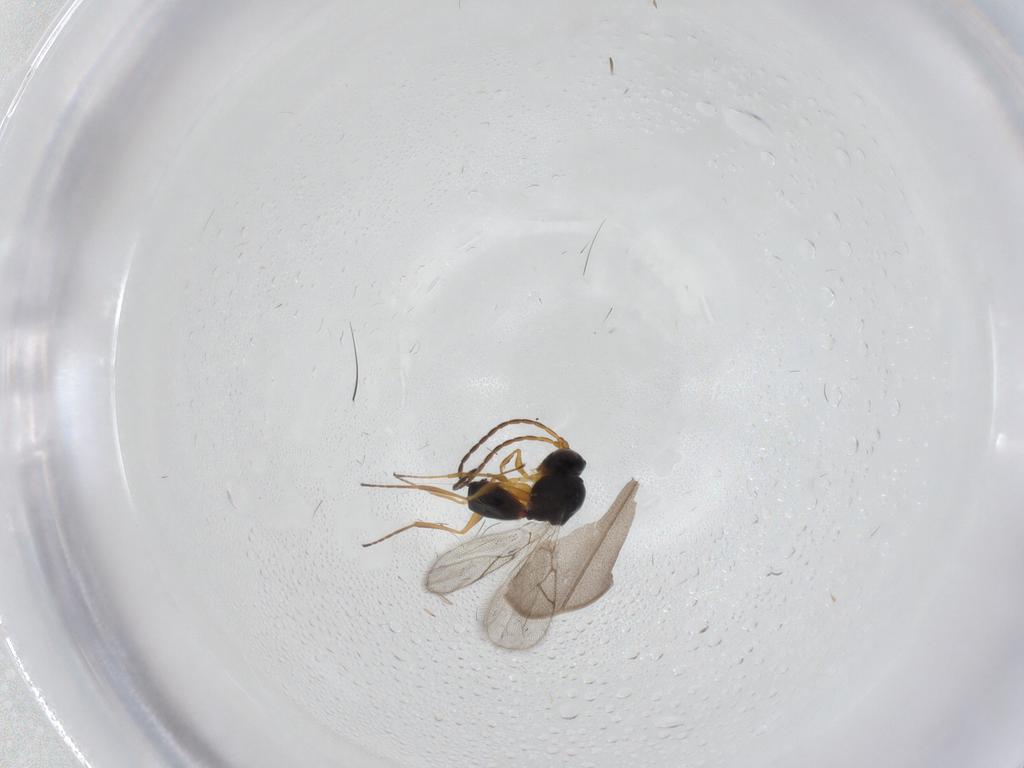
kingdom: Animalia
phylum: Arthropoda
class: Insecta
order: Hymenoptera
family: Figitidae
